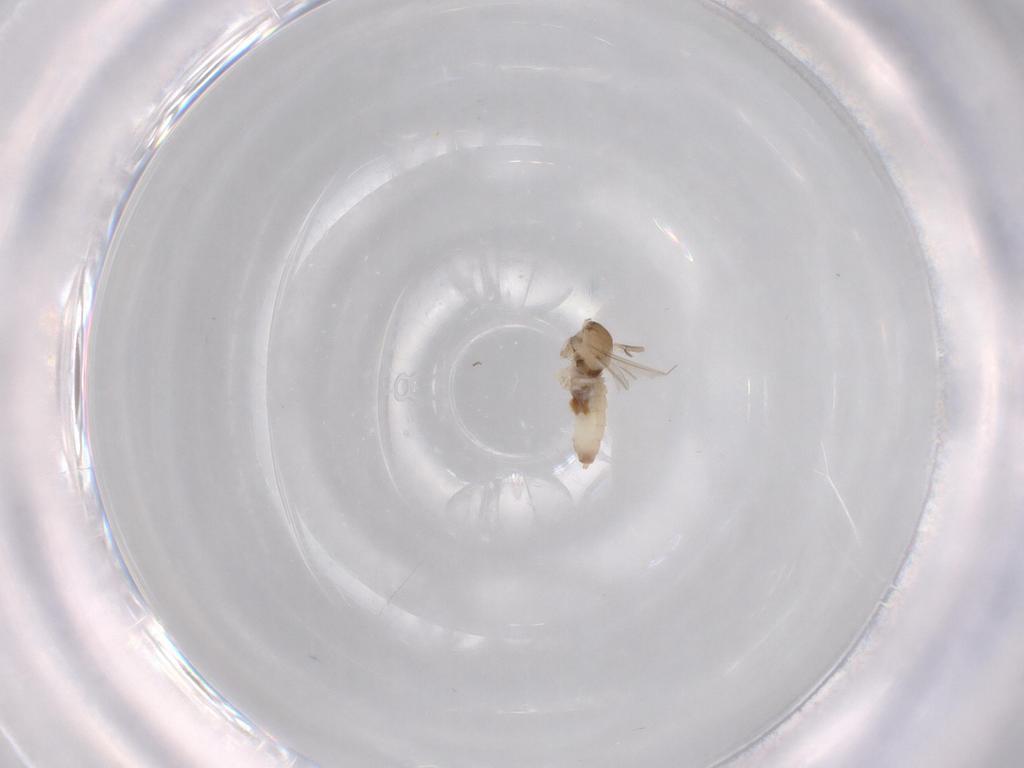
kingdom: Animalia
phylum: Arthropoda
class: Insecta
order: Diptera
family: Cecidomyiidae
